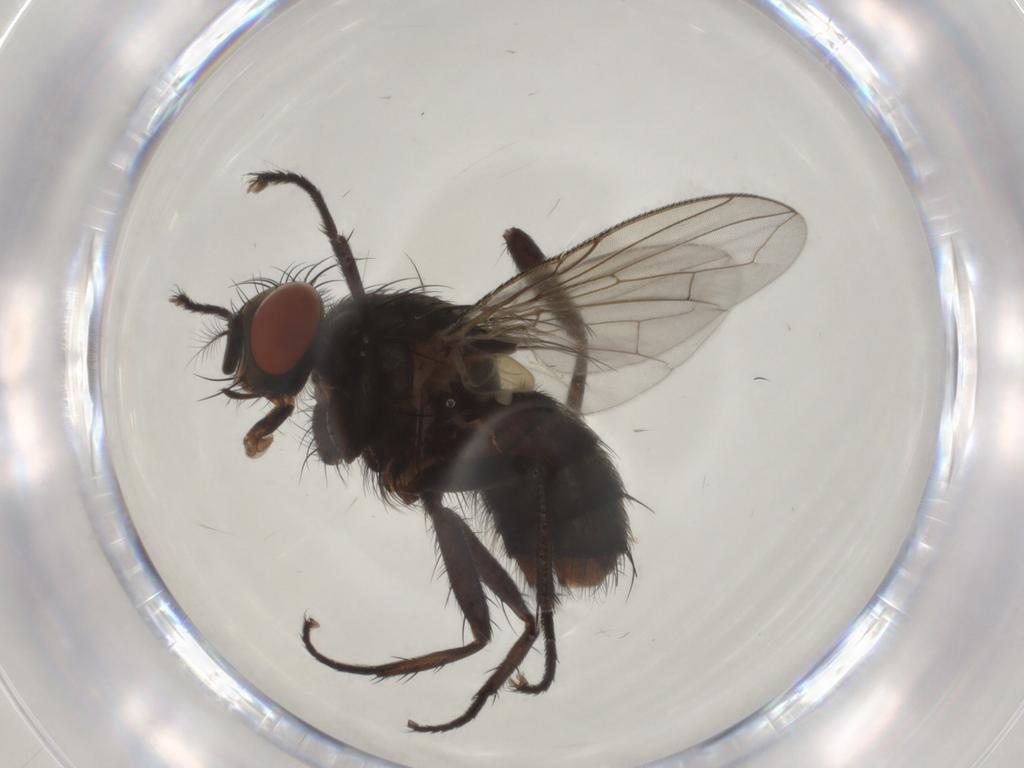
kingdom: Animalia
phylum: Arthropoda
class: Insecta
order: Diptera
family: Sarcophagidae
